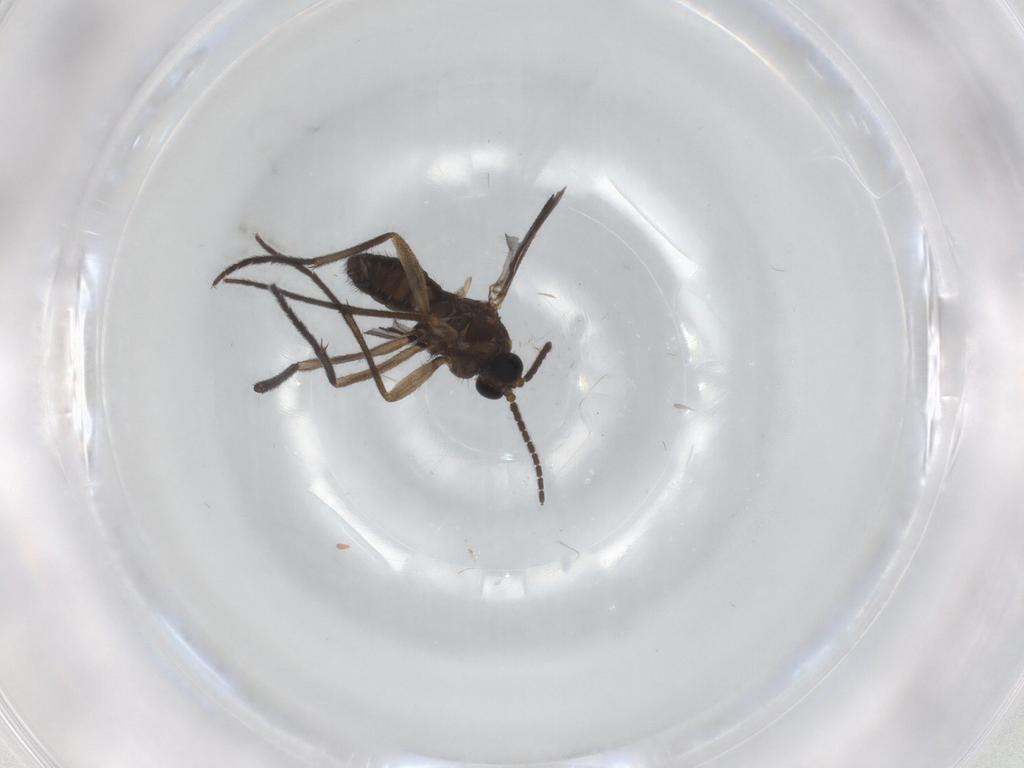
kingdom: Animalia
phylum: Arthropoda
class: Insecta
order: Diptera
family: Sciaridae
